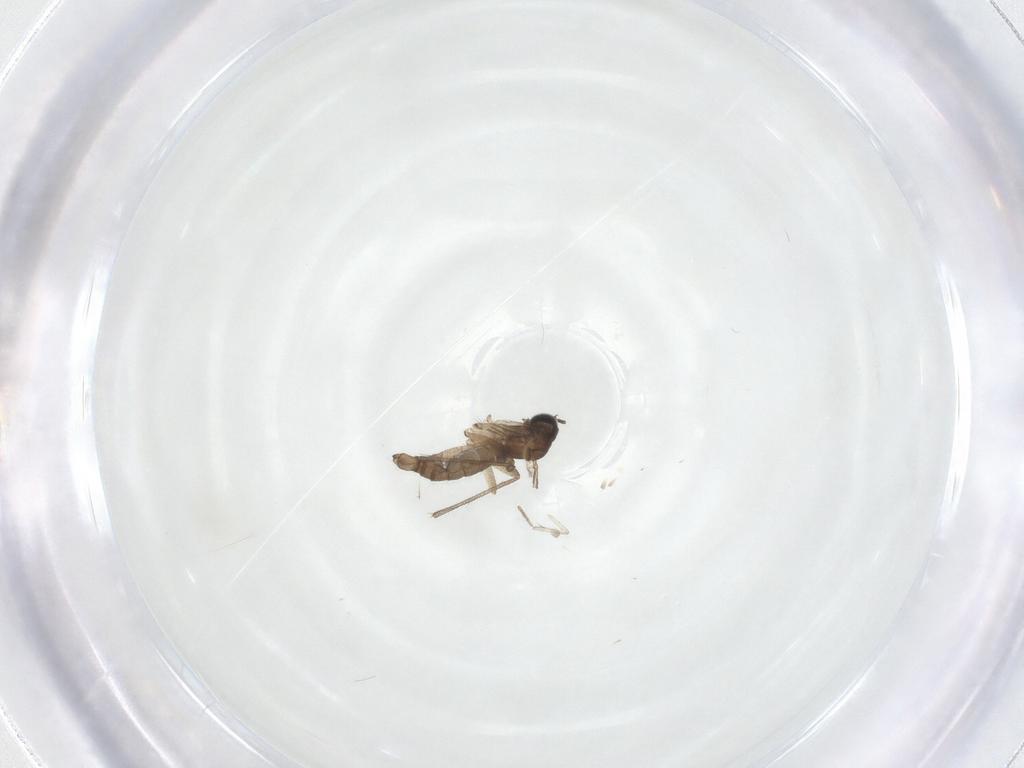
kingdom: Animalia
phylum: Arthropoda
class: Insecta
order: Diptera
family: Sciaridae
